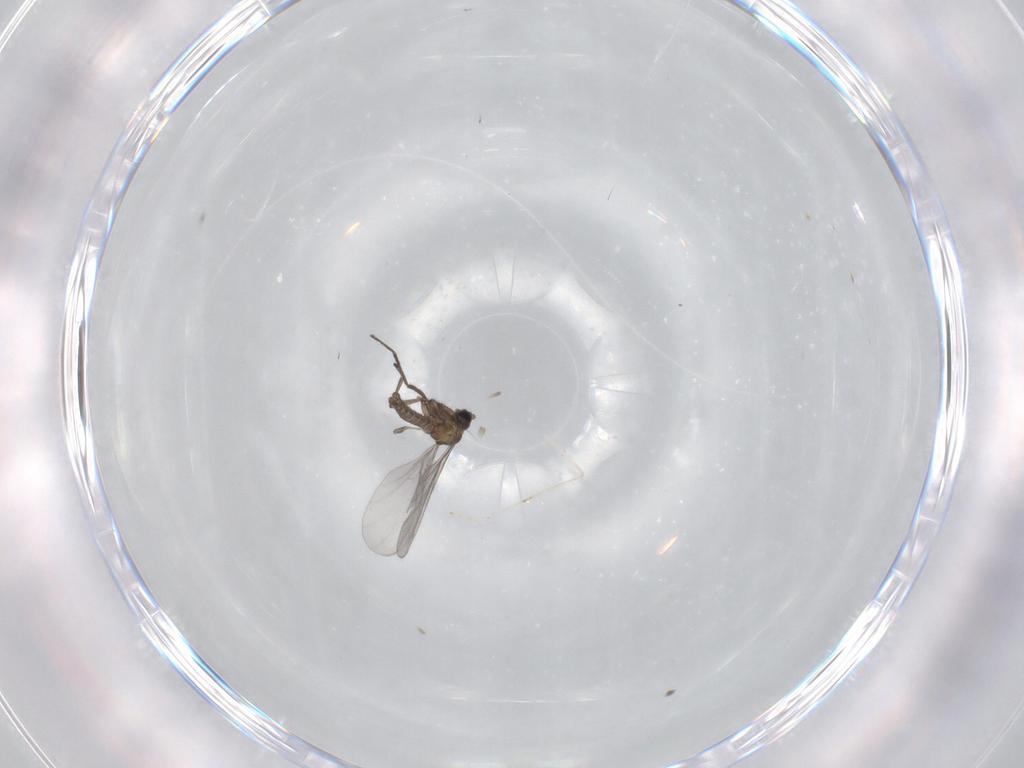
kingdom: Animalia
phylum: Arthropoda
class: Insecta
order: Diptera
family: Sciaridae
